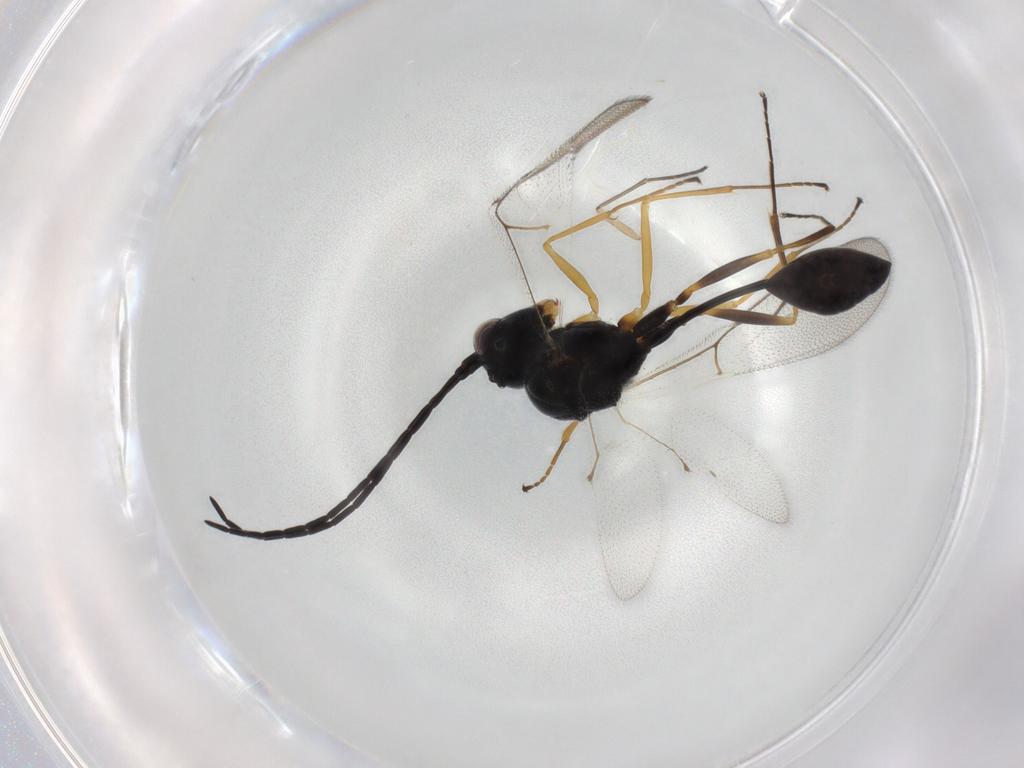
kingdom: Animalia
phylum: Arthropoda
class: Insecta
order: Hymenoptera
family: Figitidae
